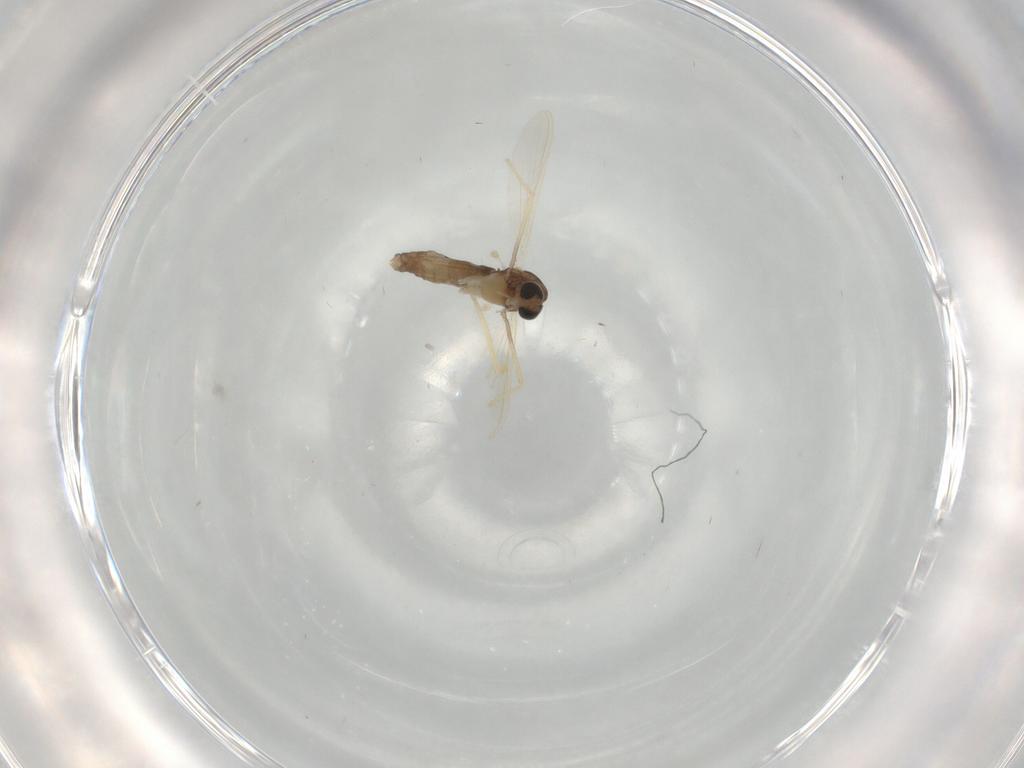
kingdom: Animalia
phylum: Arthropoda
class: Insecta
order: Diptera
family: Chironomidae
